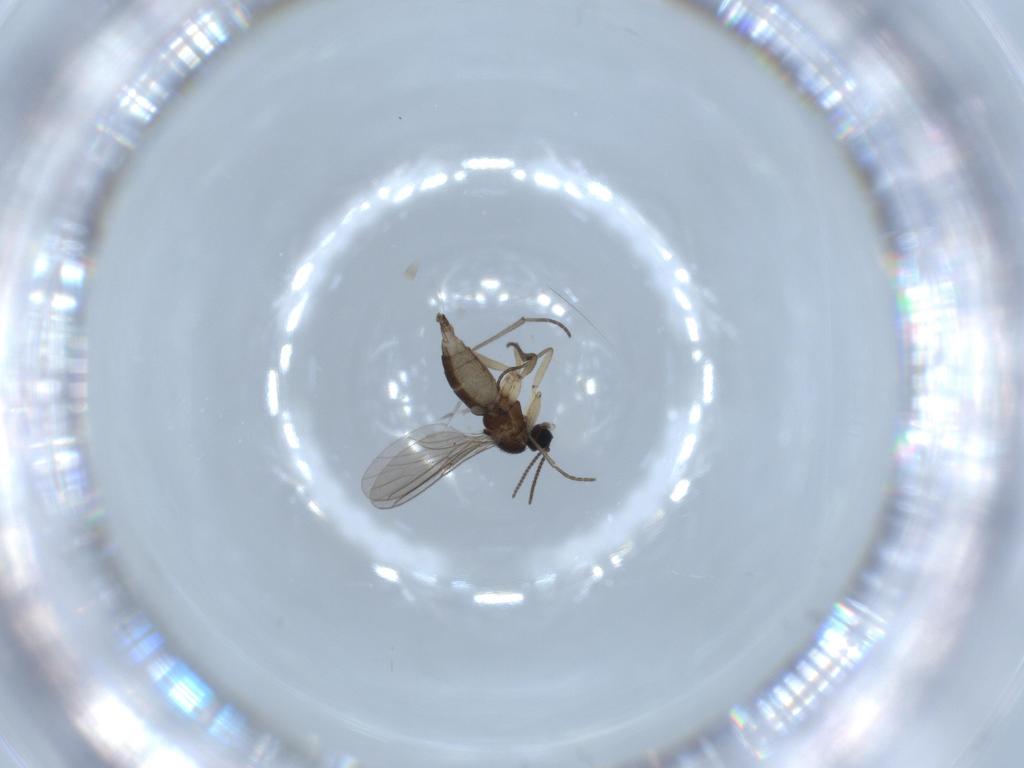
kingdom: Animalia
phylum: Arthropoda
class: Insecta
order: Diptera
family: Sciaridae
